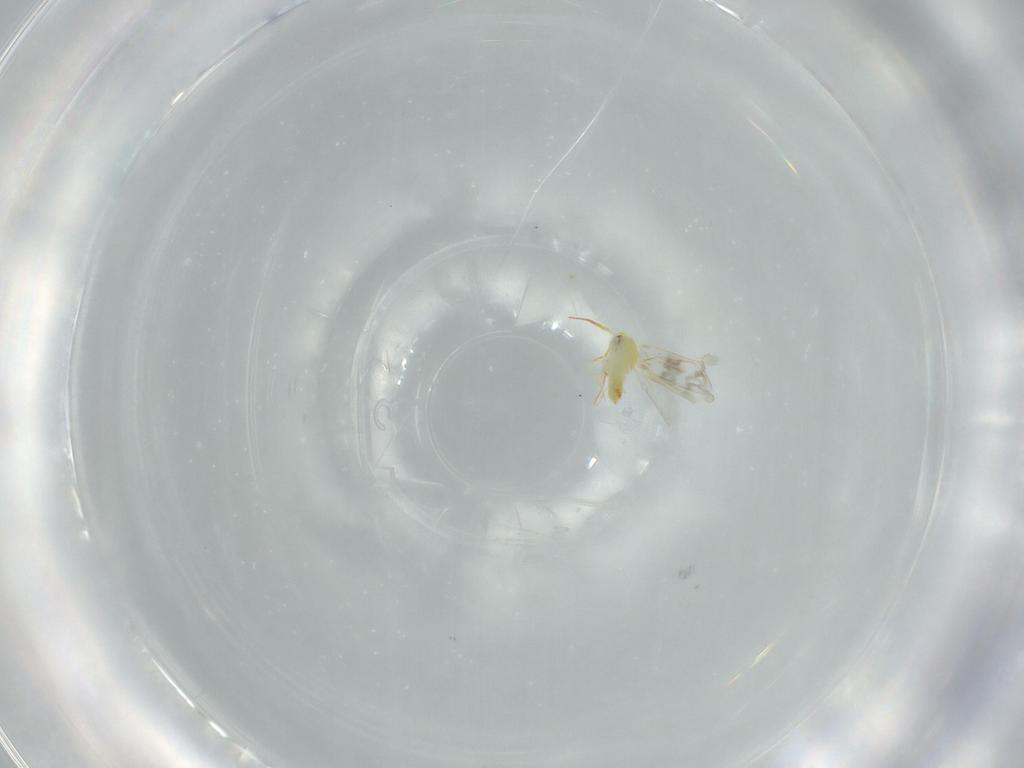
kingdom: Animalia
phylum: Arthropoda
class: Insecta
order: Hemiptera
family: Aleyrodidae
